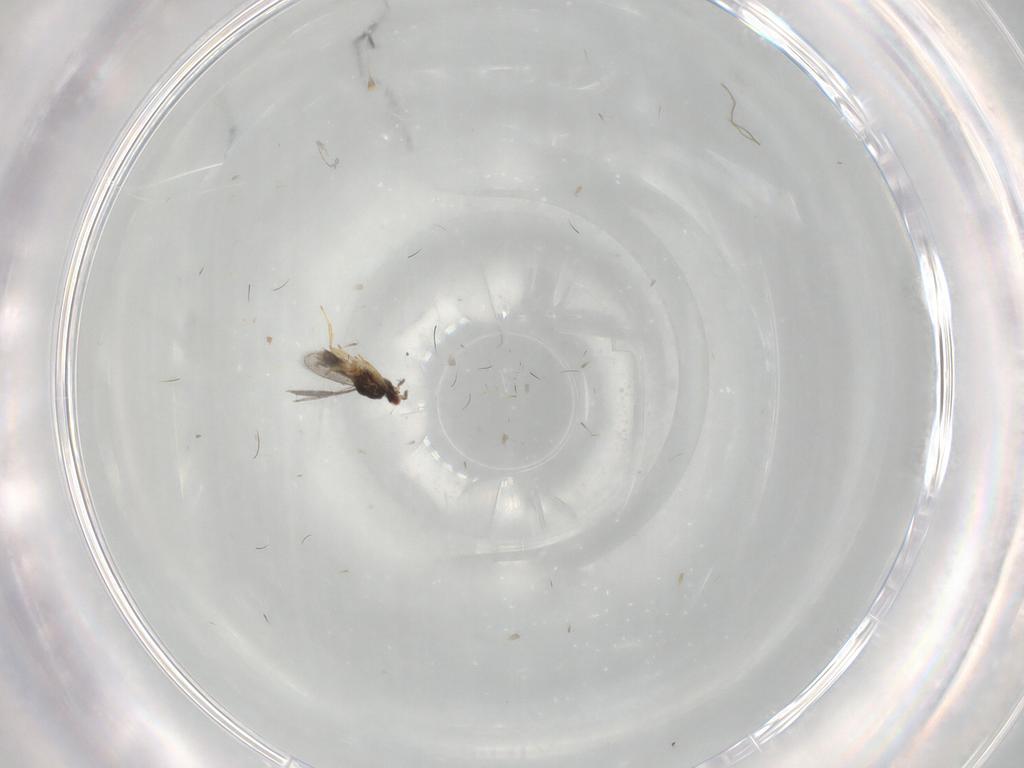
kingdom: Animalia
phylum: Arthropoda
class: Insecta
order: Hymenoptera
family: Eulophidae
